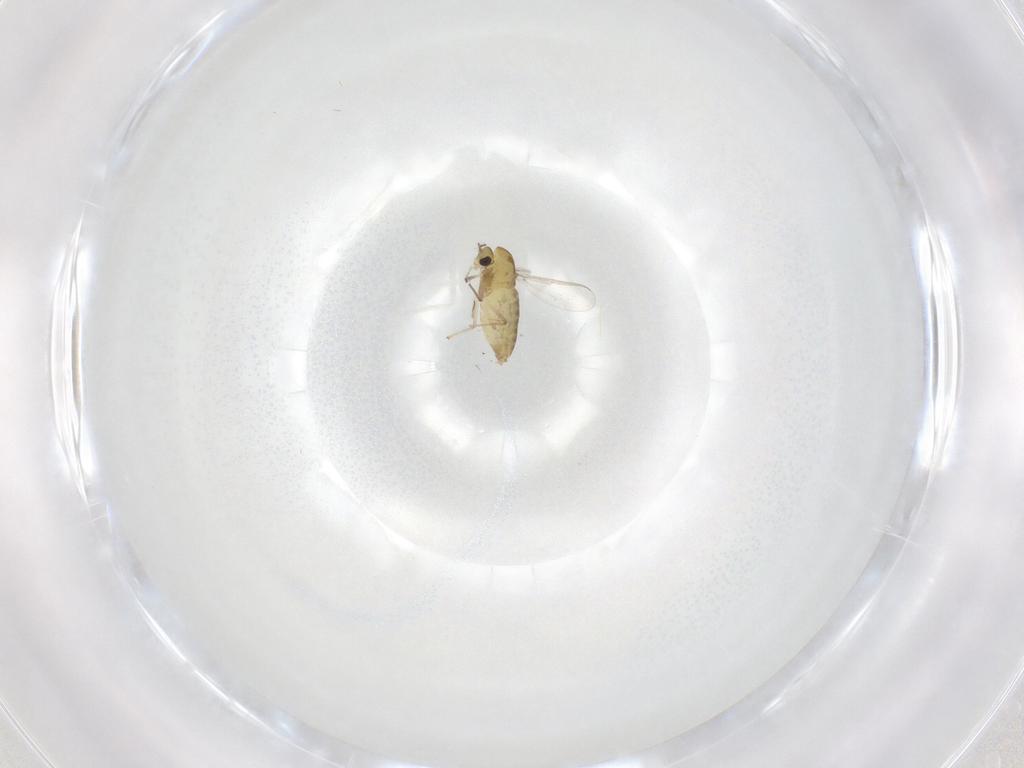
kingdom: Animalia
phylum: Arthropoda
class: Insecta
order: Diptera
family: Chironomidae
